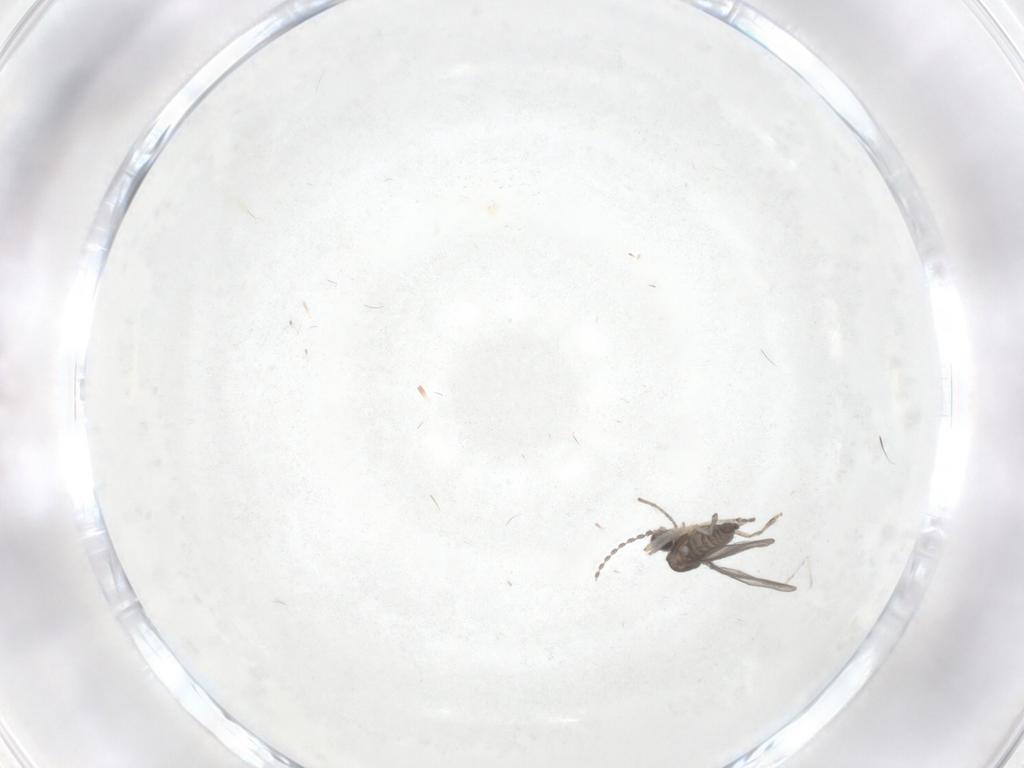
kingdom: Animalia
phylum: Arthropoda
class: Insecta
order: Diptera
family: Cecidomyiidae
